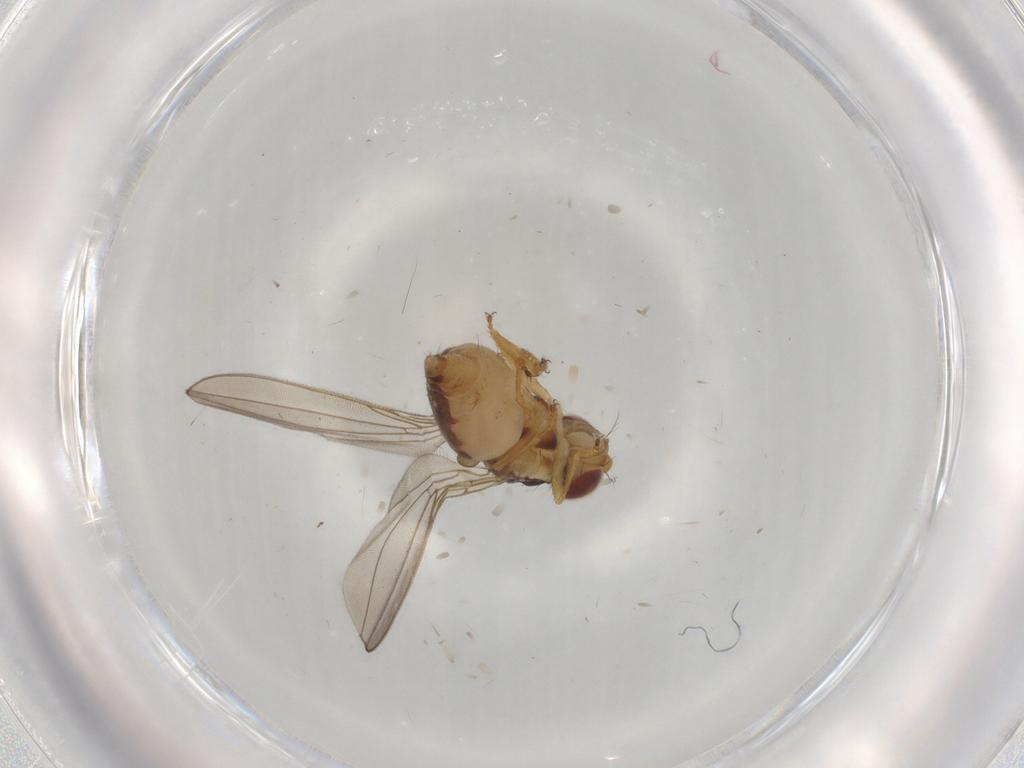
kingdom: Animalia
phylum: Arthropoda
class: Insecta
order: Diptera
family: Asteiidae
